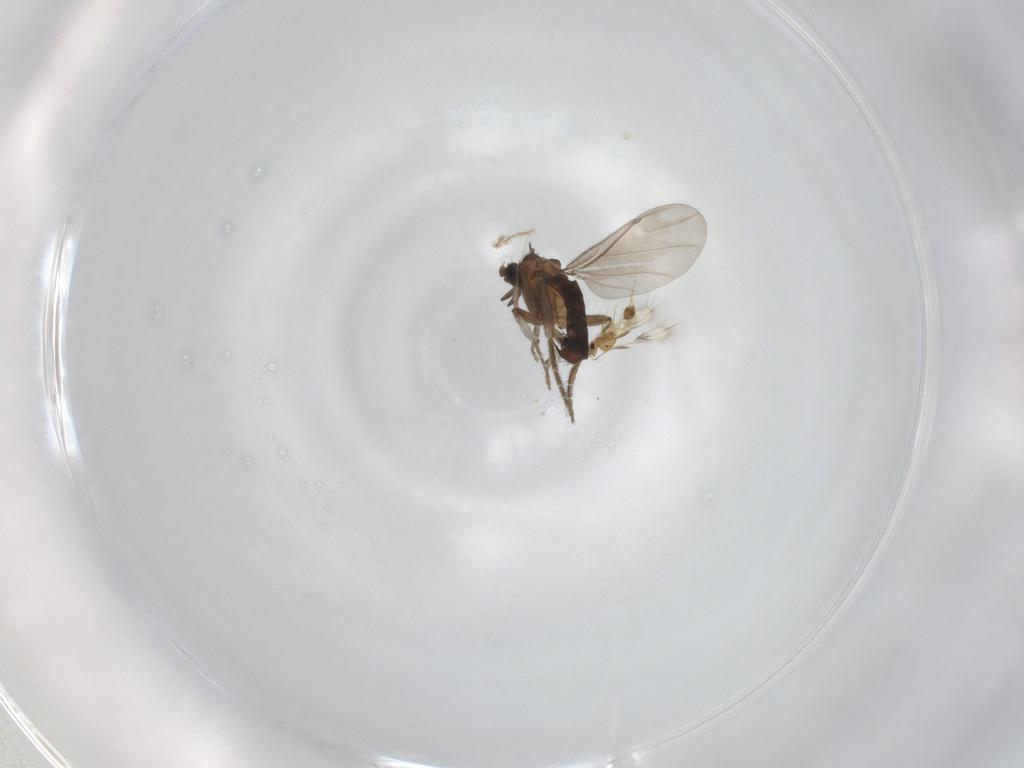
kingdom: Animalia
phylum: Arthropoda
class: Insecta
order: Diptera
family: Phoridae
